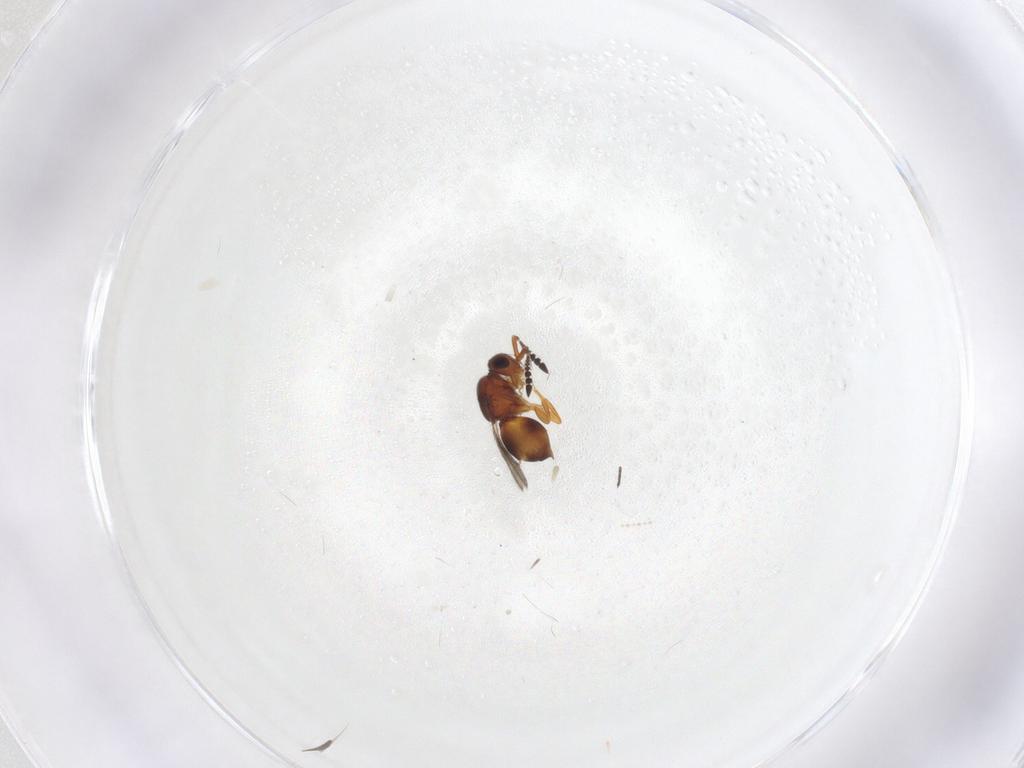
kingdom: Animalia
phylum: Arthropoda
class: Insecta
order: Hymenoptera
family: Ceraphronidae
